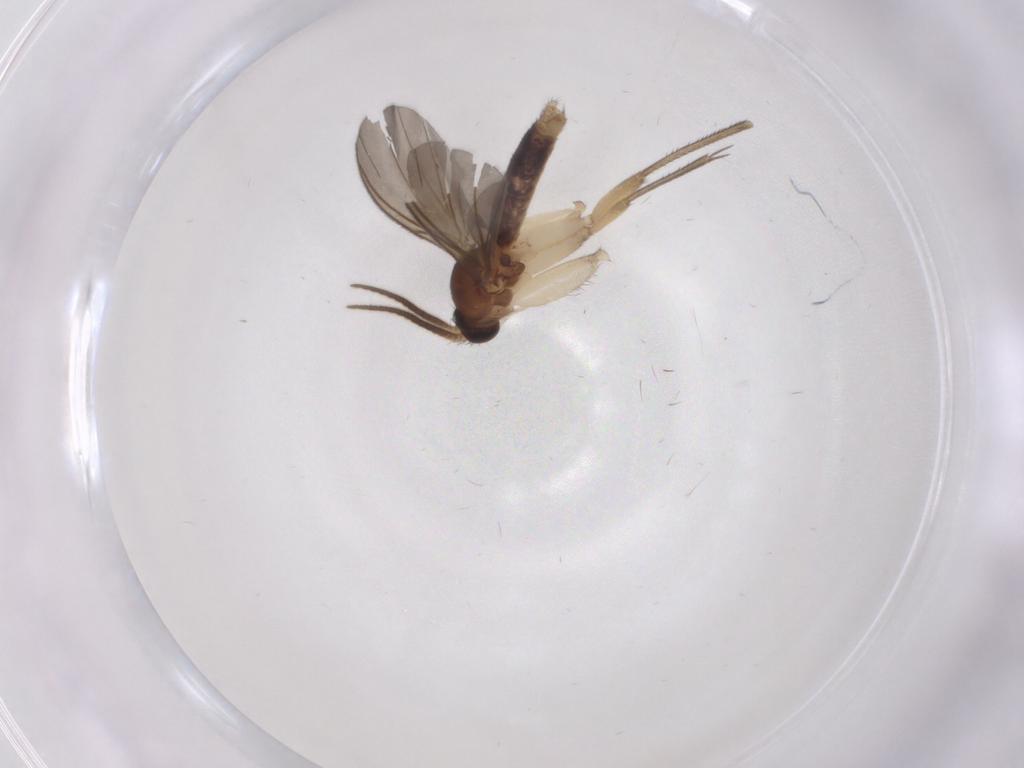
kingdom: Animalia
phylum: Arthropoda
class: Insecta
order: Diptera
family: Mycetophilidae
